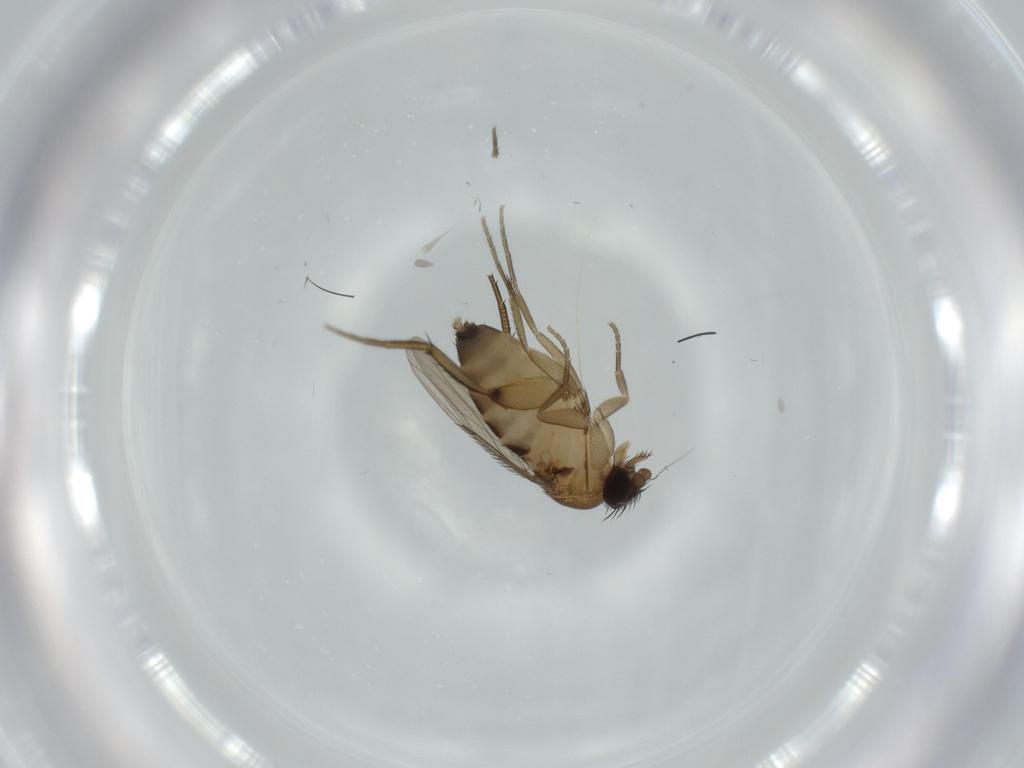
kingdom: Animalia
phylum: Arthropoda
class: Insecta
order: Diptera
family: Phoridae
